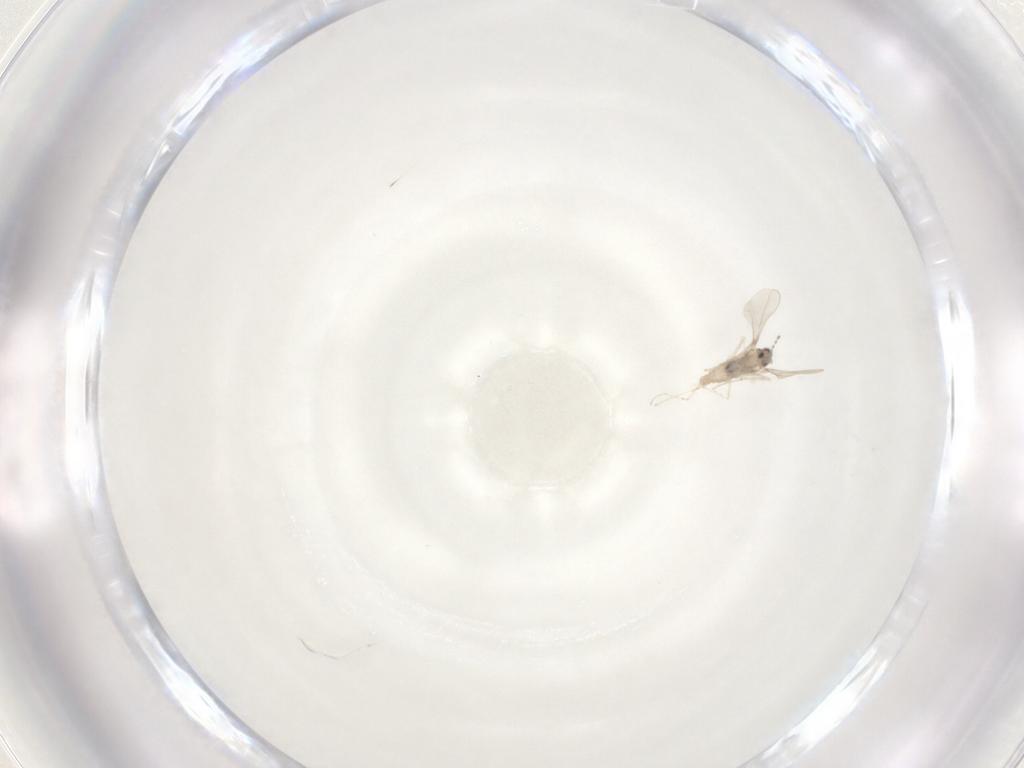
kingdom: Animalia
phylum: Arthropoda
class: Insecta
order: Diptera
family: Cecidomyiidae
